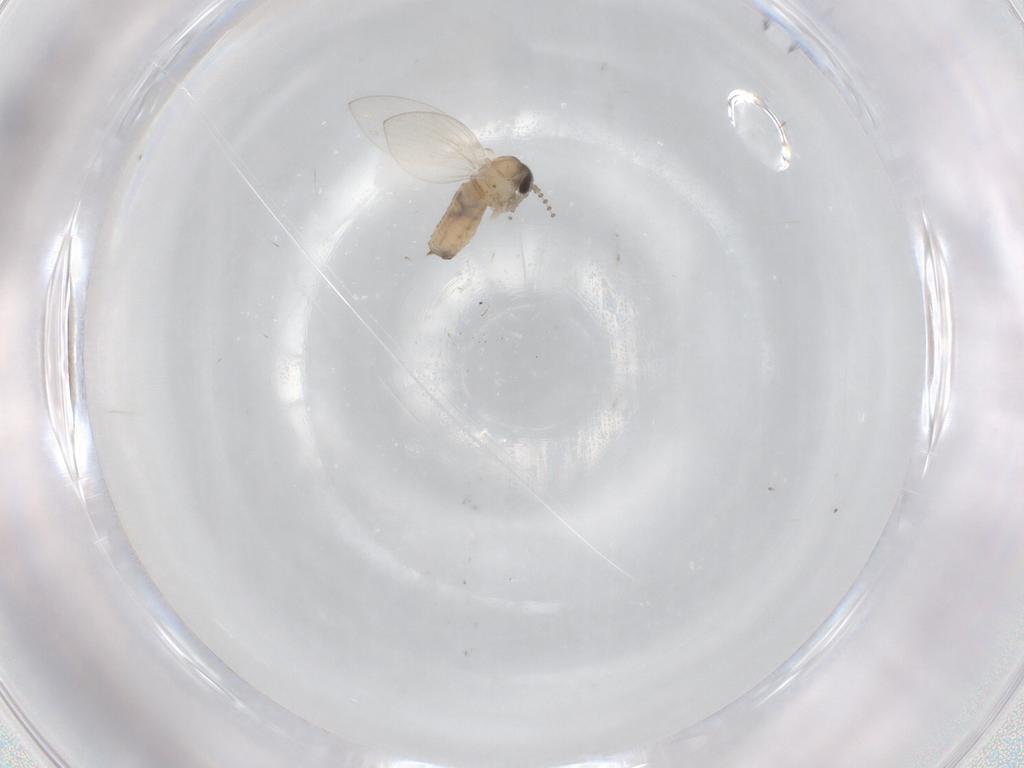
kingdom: Animalia
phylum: Arthropoda
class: Insecta
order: Diptera
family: Psychodidae
